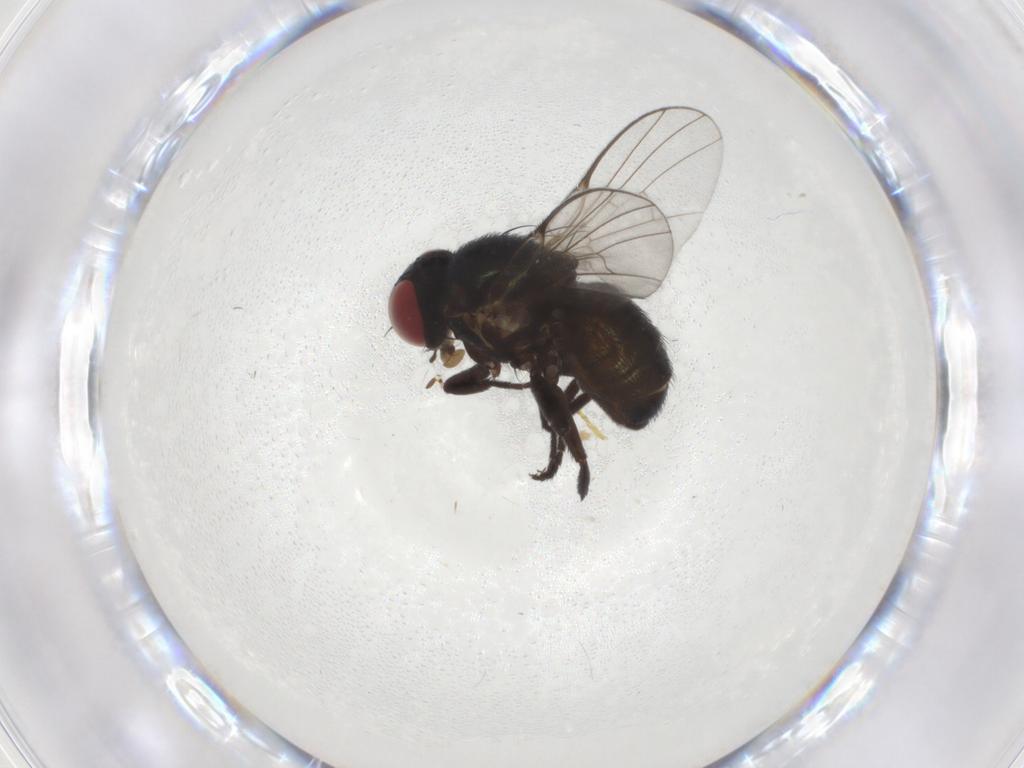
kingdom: Animalia
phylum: Arthropoda
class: Insecta
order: Diptera
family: Agromyzidae
